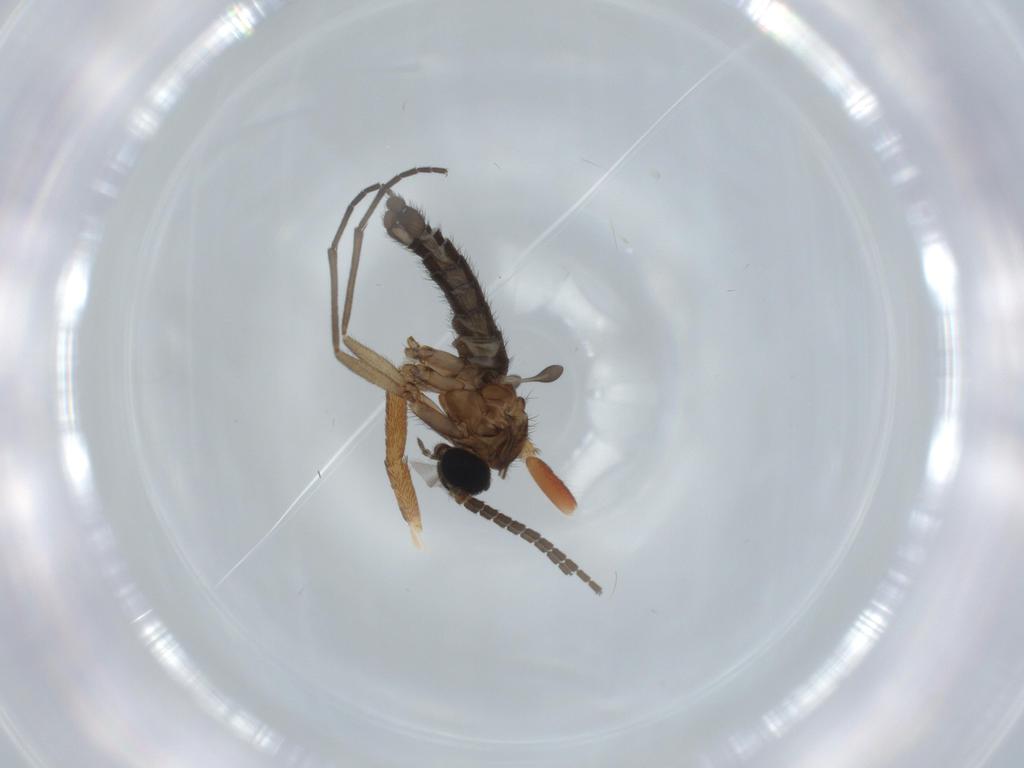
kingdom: Animalia
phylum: Arthropoda
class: Insecta
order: Diptera
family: Sciaridae
